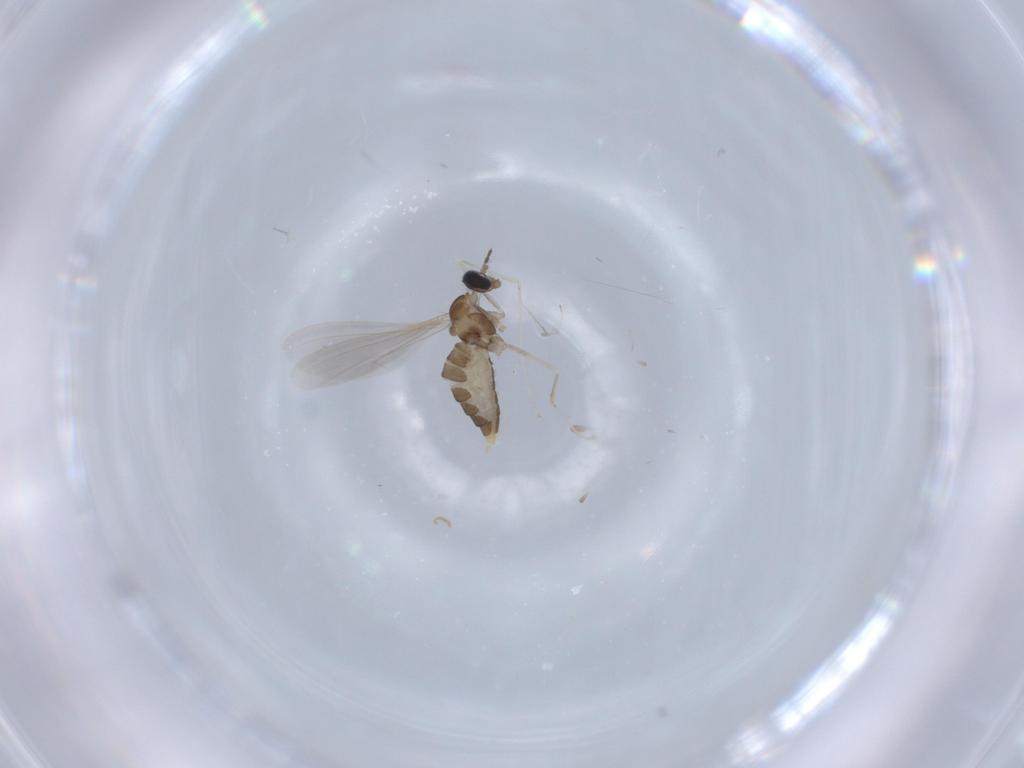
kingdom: Animalia
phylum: Arthropoda
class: Insecta
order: Diptera
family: Cecidomyiidae
